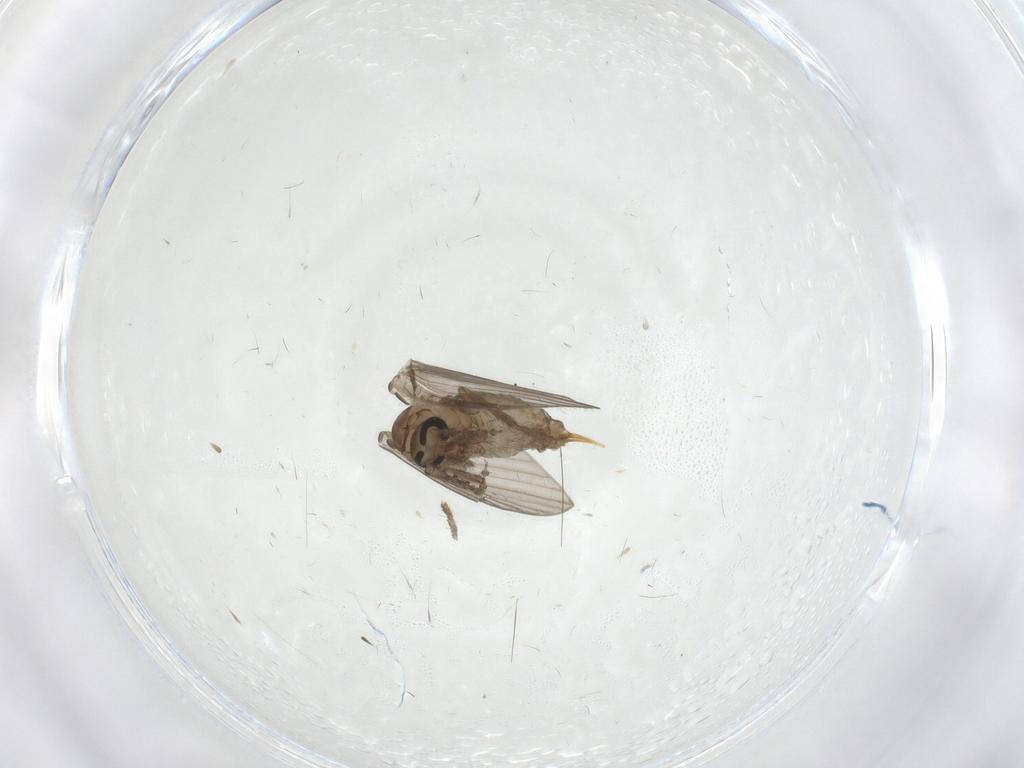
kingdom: Animalia
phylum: Arthropoda
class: Insecta
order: Diptera
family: Psychodidae
